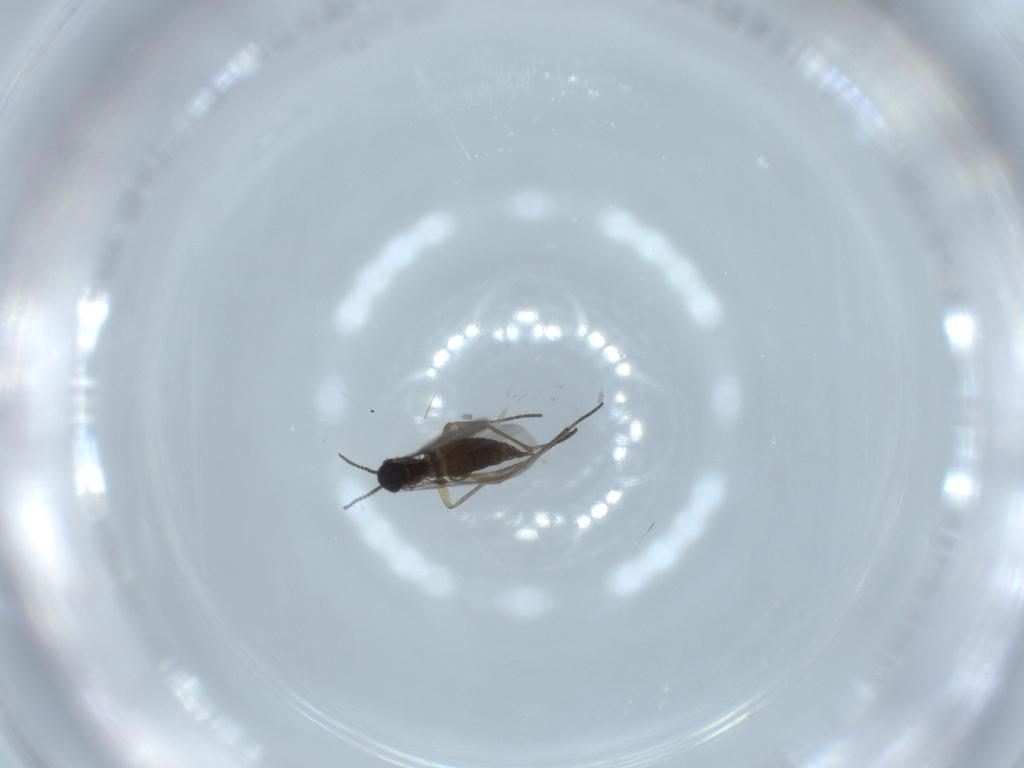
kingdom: Animalia
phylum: Arthropoda
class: Insecta
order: Diptera
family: Sciaridae
